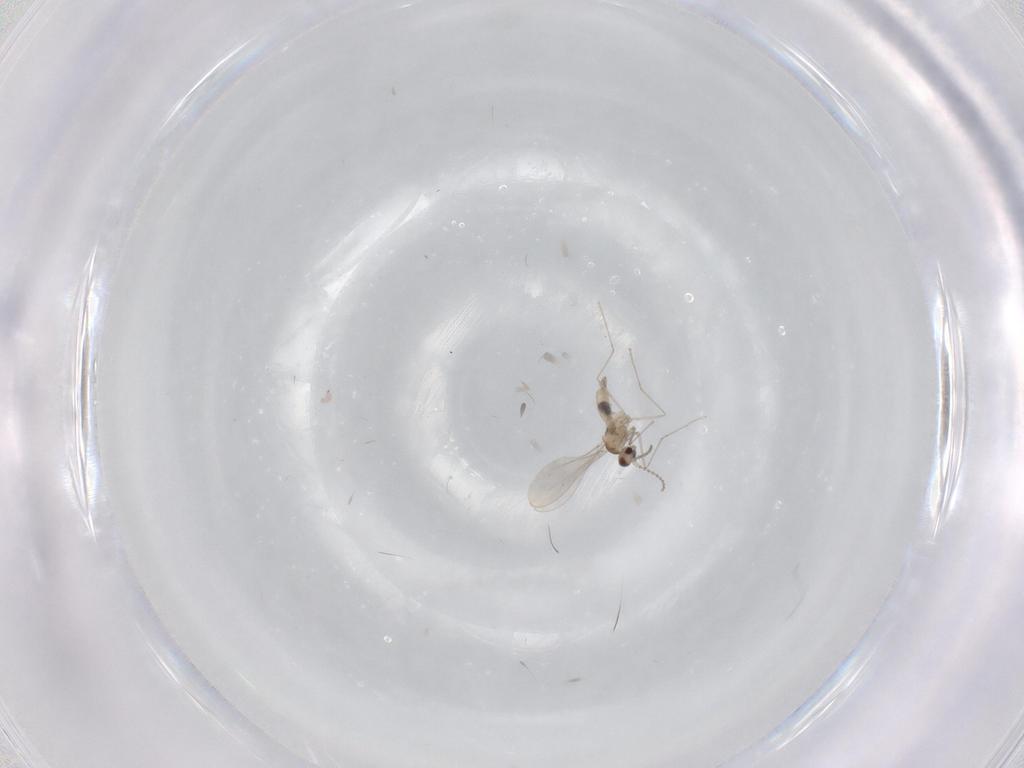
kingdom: Animalia
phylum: Arthropoda
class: Insecta
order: Diptera
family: Cecidomyiidae
